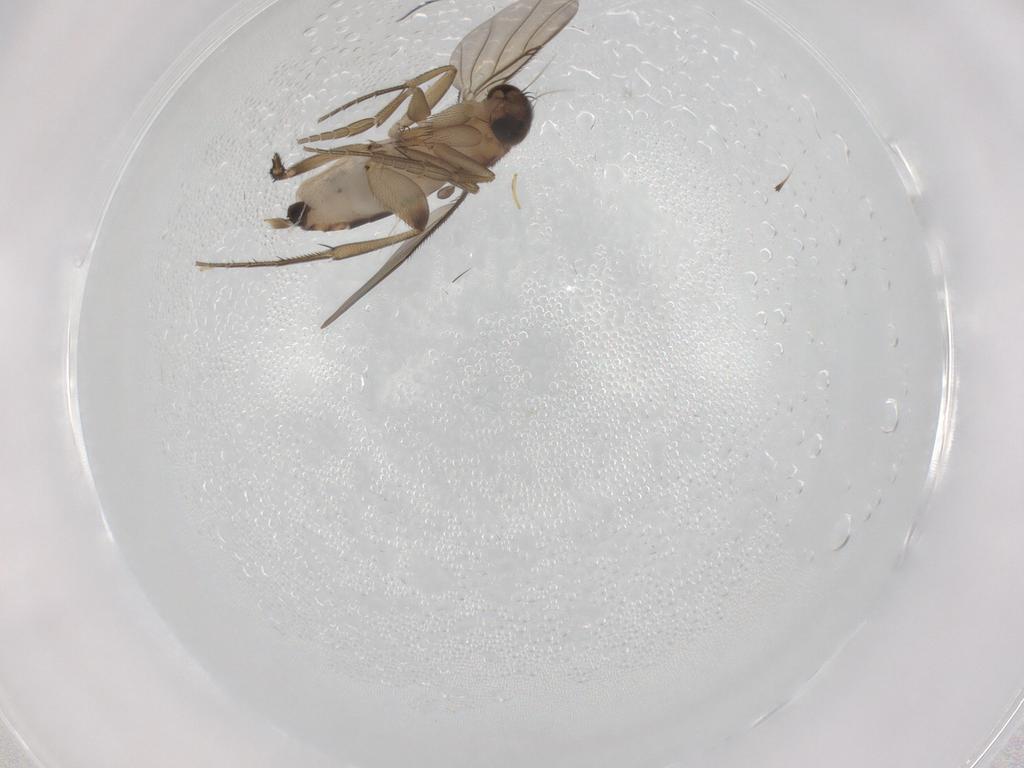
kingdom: Animalia
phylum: Arthropoda
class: Insecta
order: Diptera
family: Phoridae
